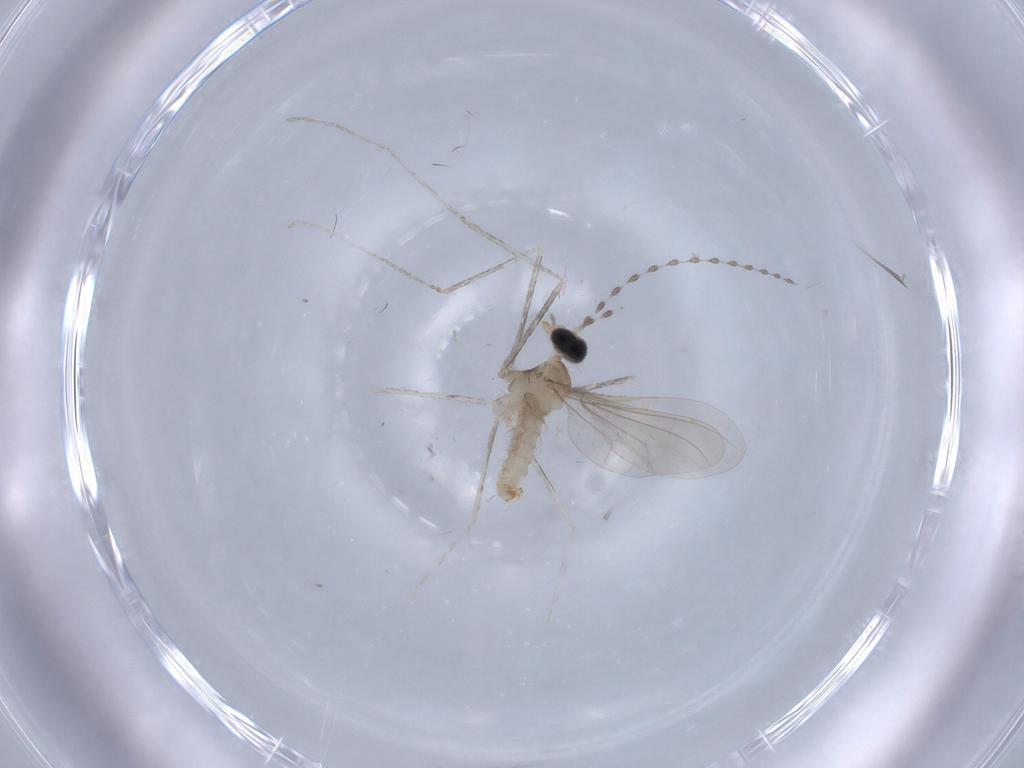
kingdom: Animalia
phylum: Arthropoda
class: Insecta
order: Diptera
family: Cecidomyiidae
